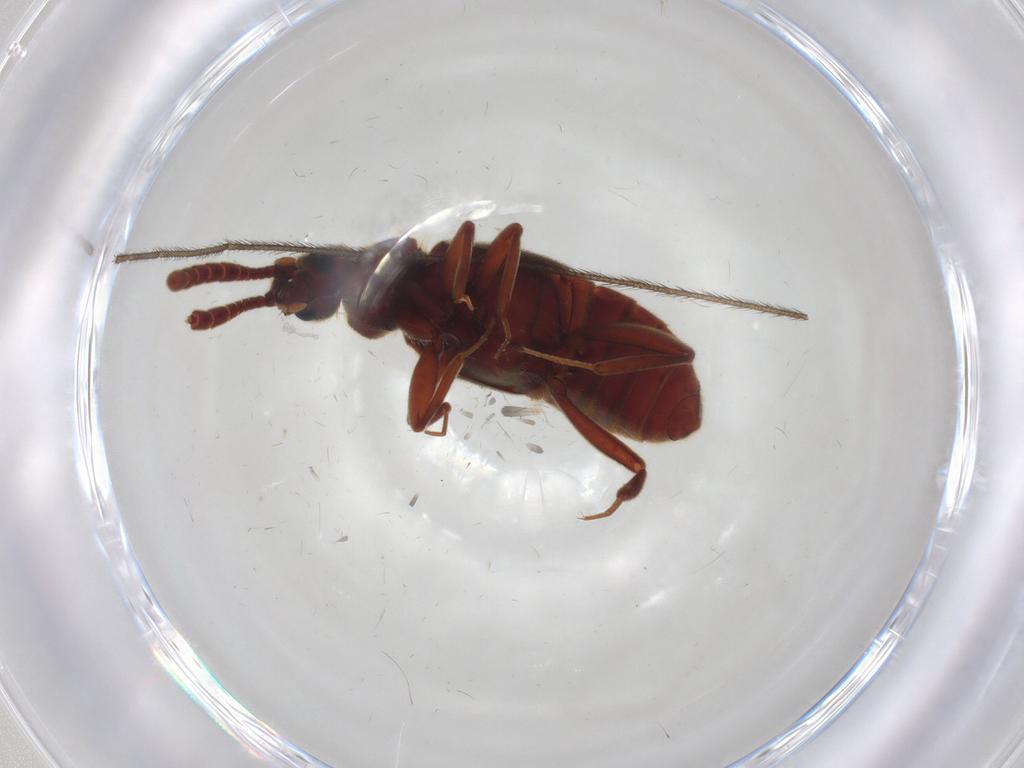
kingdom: Animalia
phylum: Arthropoda
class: Insecta
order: Coleoptera
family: Staphylinidae
